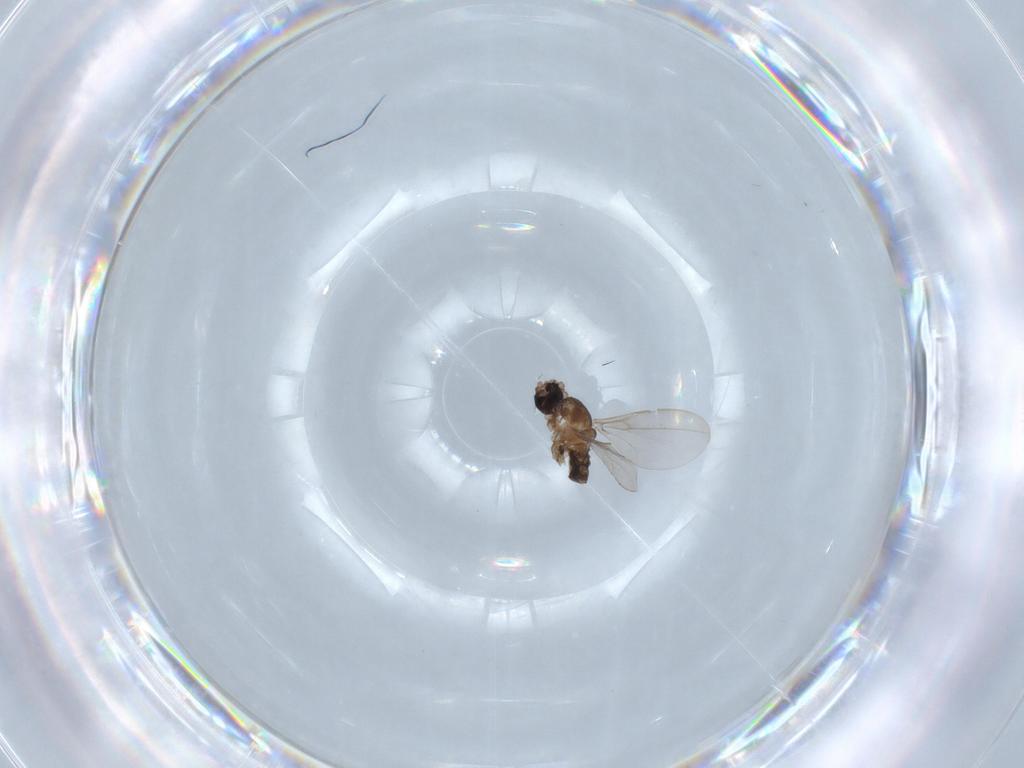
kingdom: Animalia
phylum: Arthropoda
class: Insecta
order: Diptera
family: Cecidomyiidae
